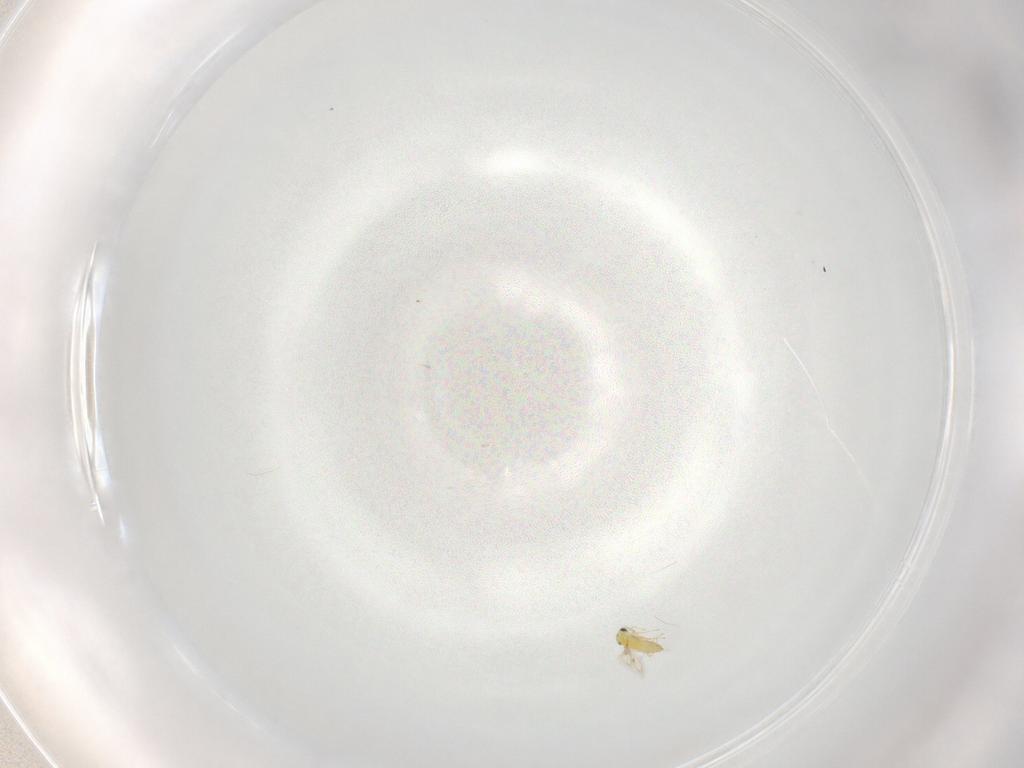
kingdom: Animalia
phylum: Arthropoda
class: Insecta
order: Hymenoptera
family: Trichogrammatidae
